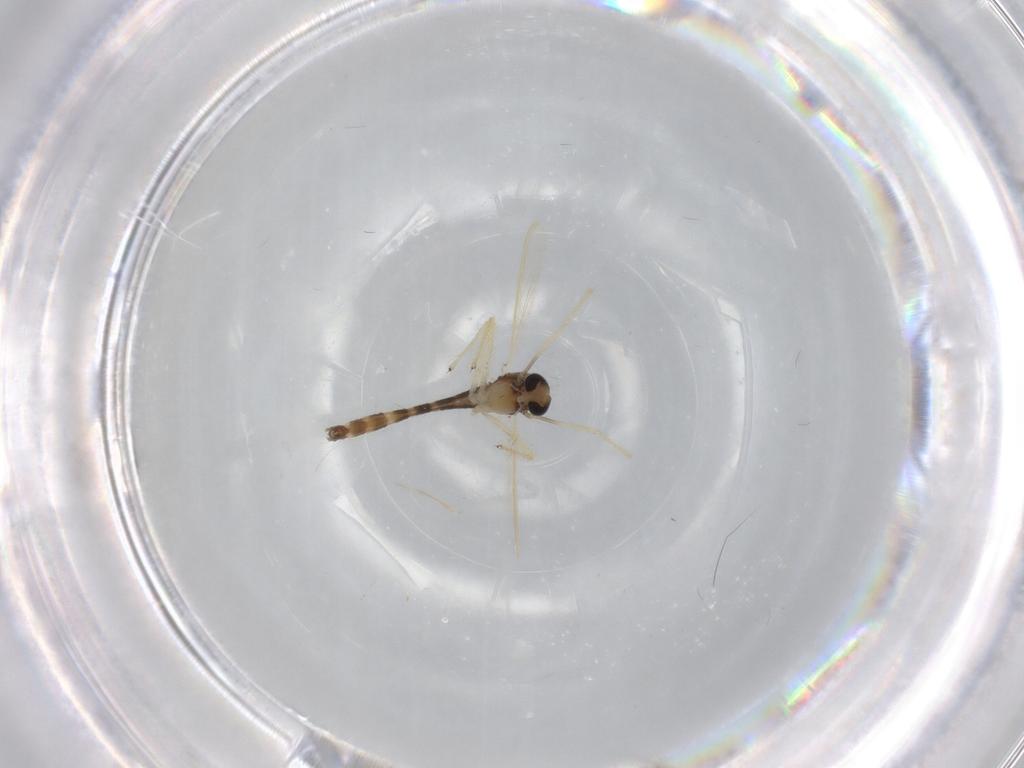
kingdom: Animalia
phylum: Arthropoda
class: Insecta
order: Diptera
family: Chironomidae
